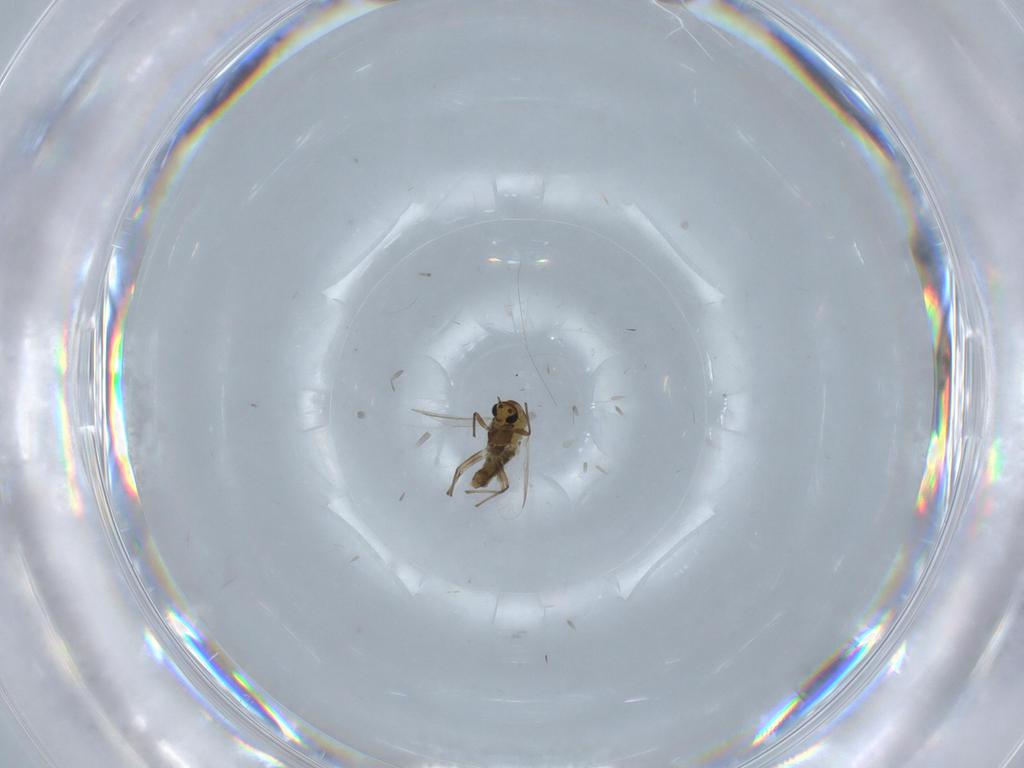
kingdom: Animalia
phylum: Arthropoda
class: Insecta
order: Diptera
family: Chironomidae
